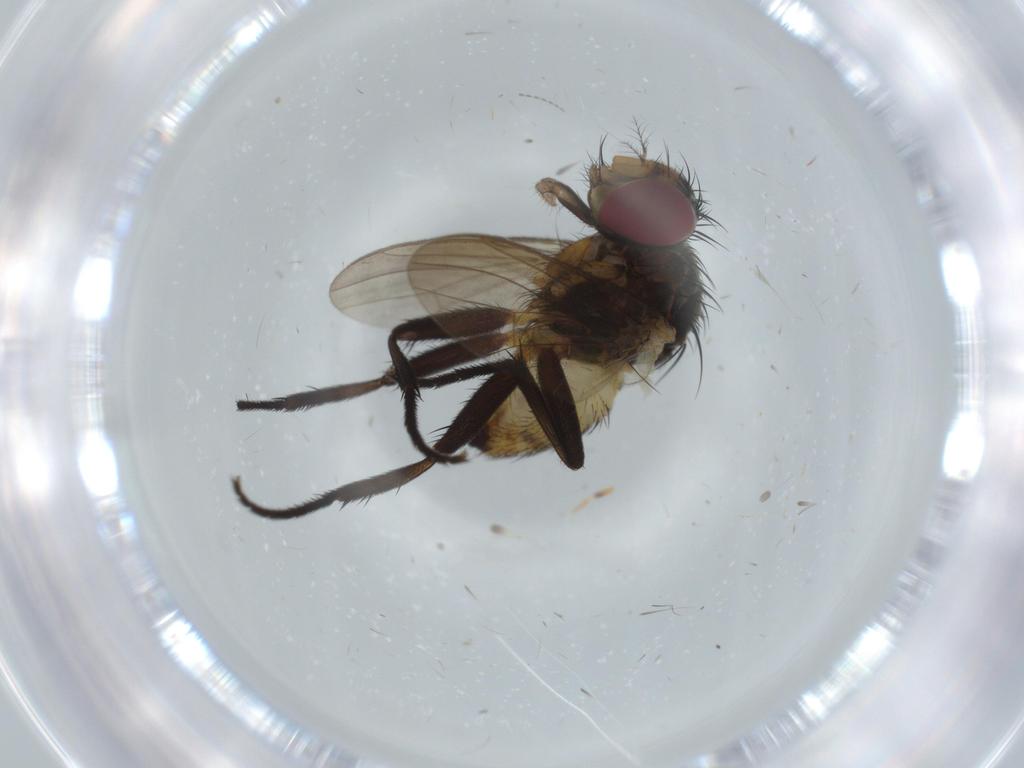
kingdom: Animalia
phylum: Arthropoda
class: Insecta
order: Diptera
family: Anthomyiidae
